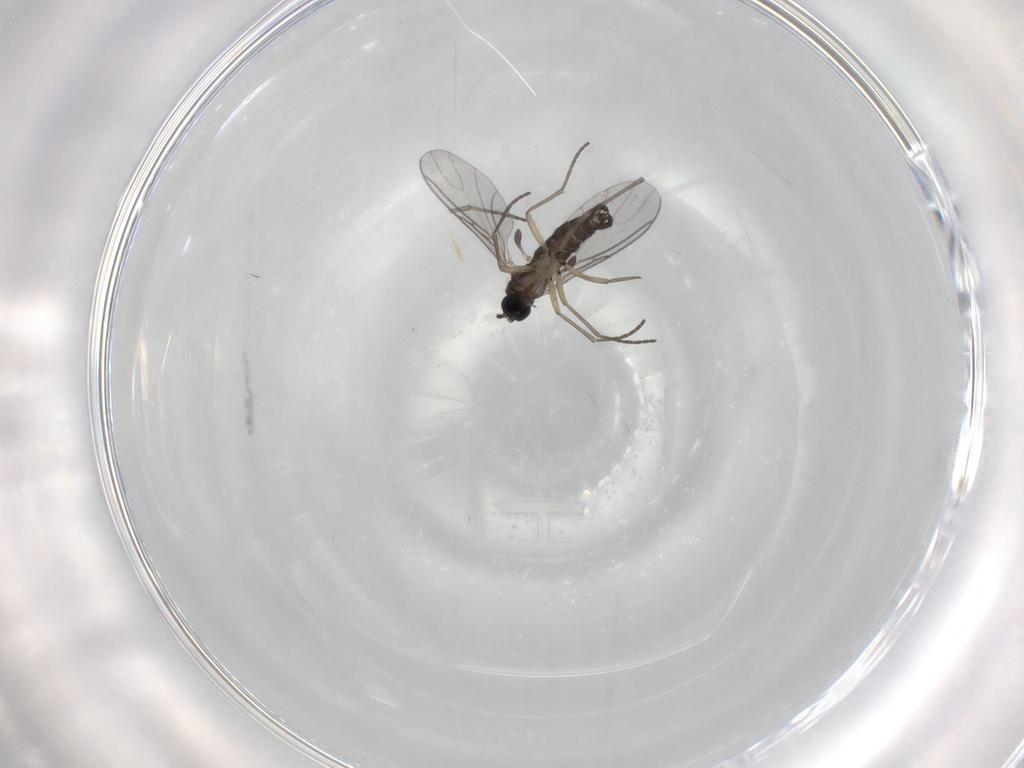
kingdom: Animalia
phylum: Arthropoda
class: Insecta
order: Diptera
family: Sciaridae
